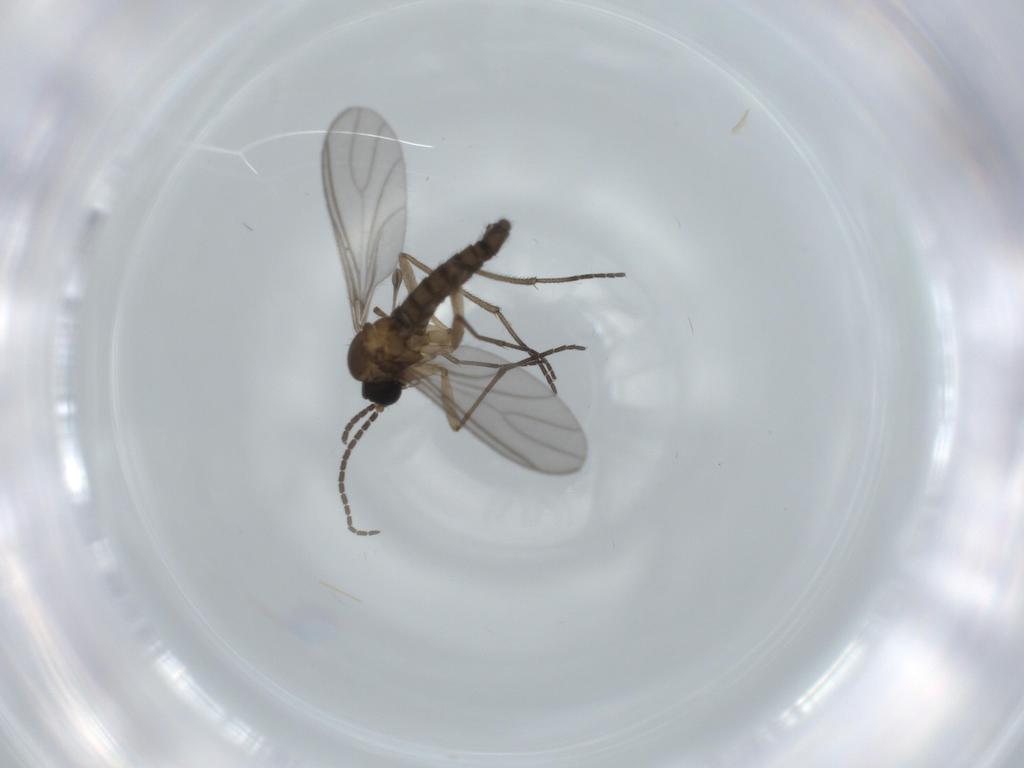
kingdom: Animalia
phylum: Arthropoda
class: Insecta
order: Diptera
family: Sciaridae
